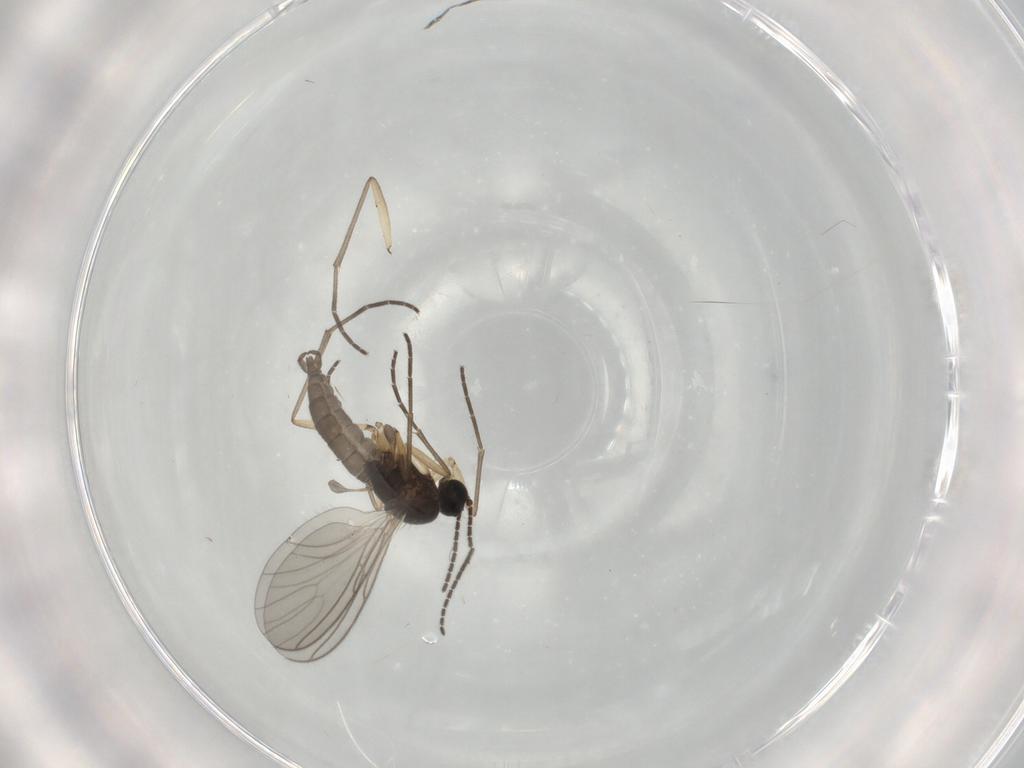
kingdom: Animalia
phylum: Arthropoda
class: Insecta
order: Diptera
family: Sciaridae
